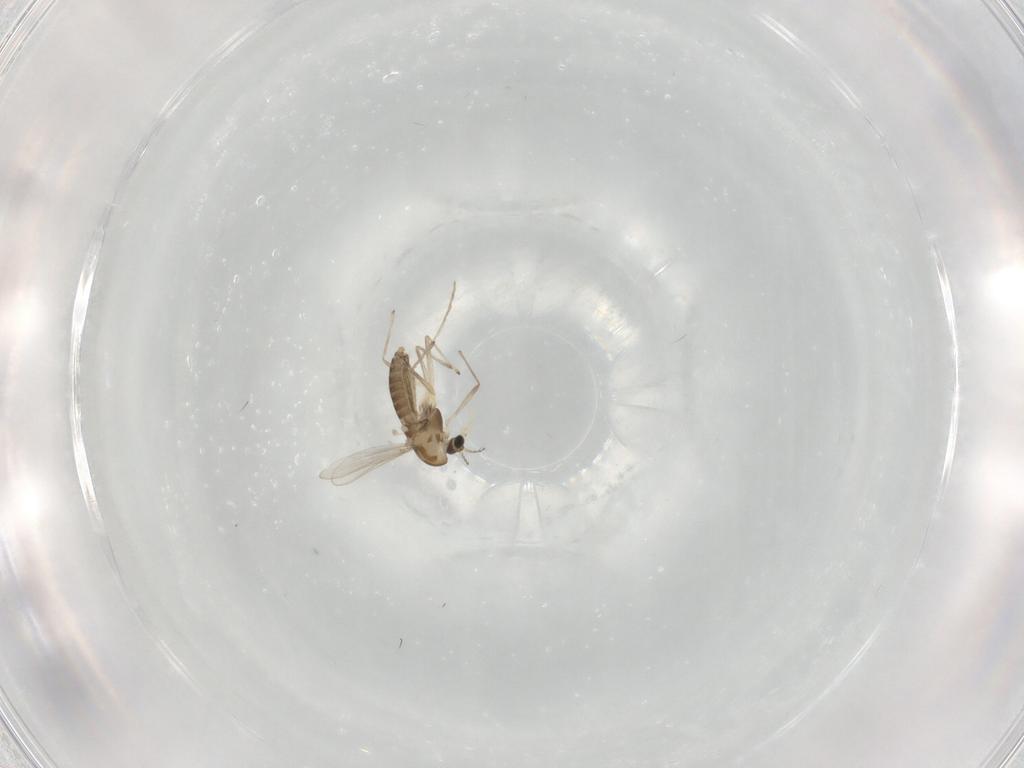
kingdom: Animalia
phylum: Arthropoda
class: Insecta
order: Diptera
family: Chironomidae
